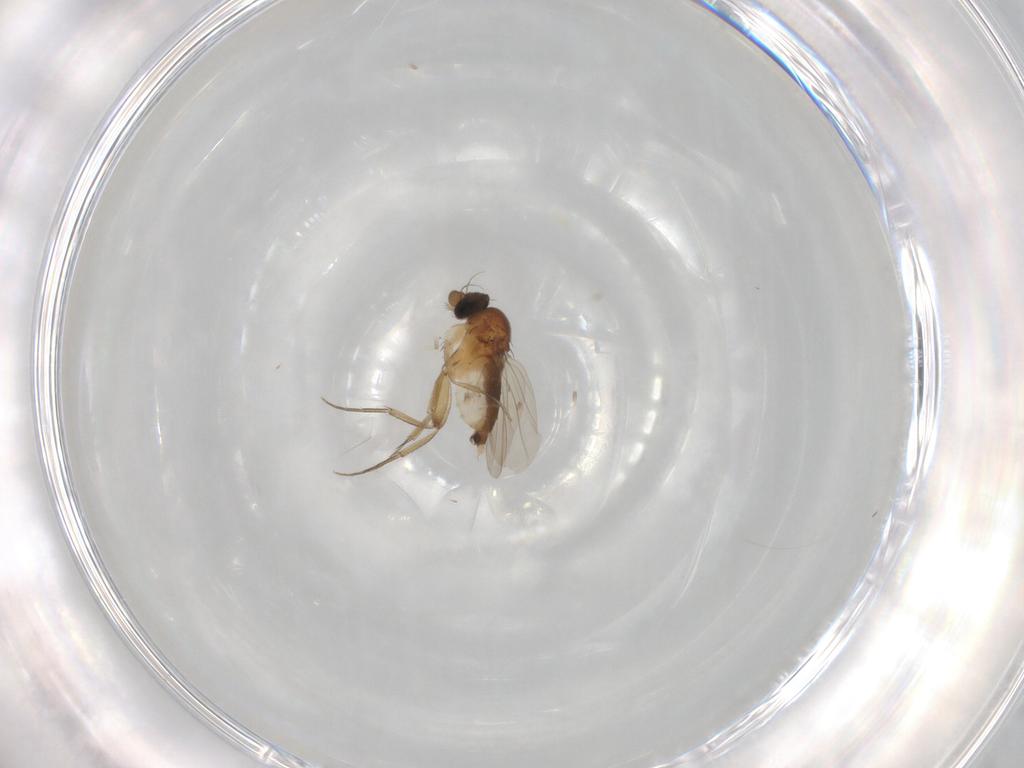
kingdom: Animalia
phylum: Arthropoda
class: Insecta
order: Diptera
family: Phoridae
